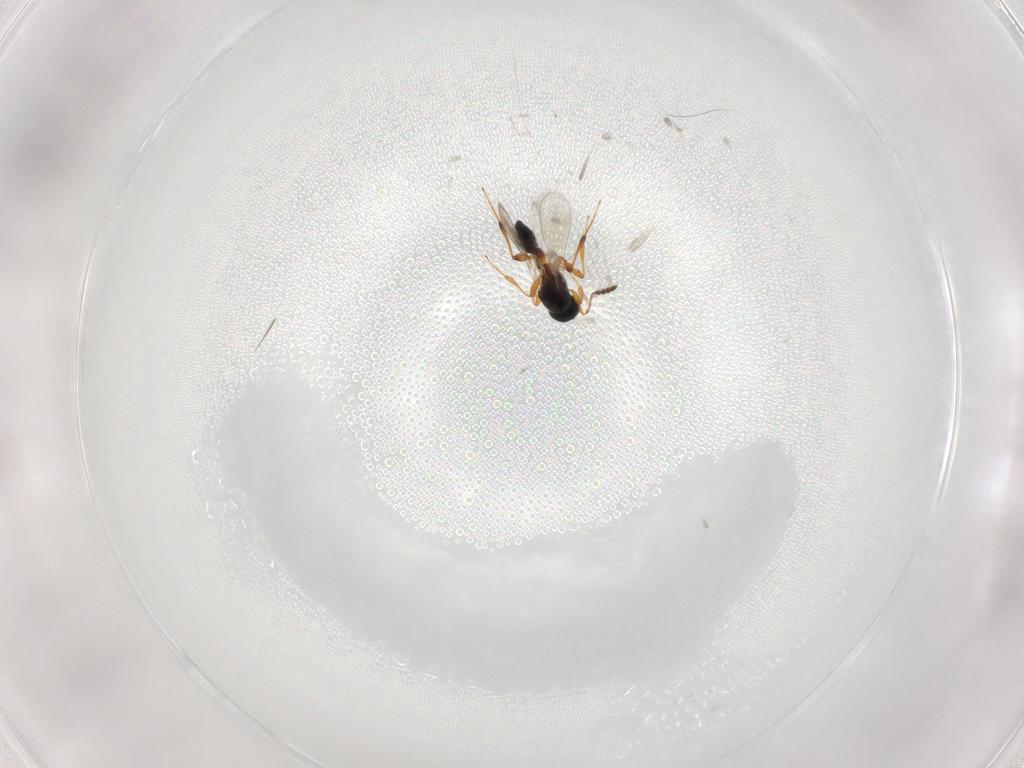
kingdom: Animalia
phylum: Arthropoda
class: Insecta
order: Hymenoptera
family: Platygastridae
